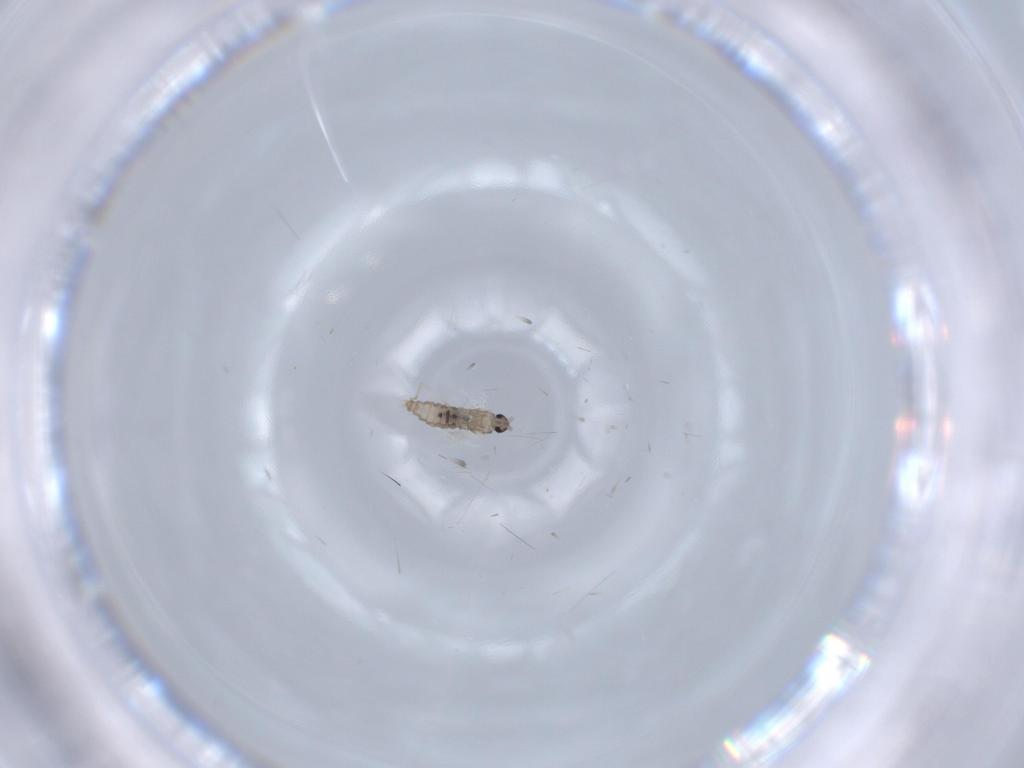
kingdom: Animalia
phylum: Arthropoda
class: Insecta
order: Diptera
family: Cecidomyiidae
